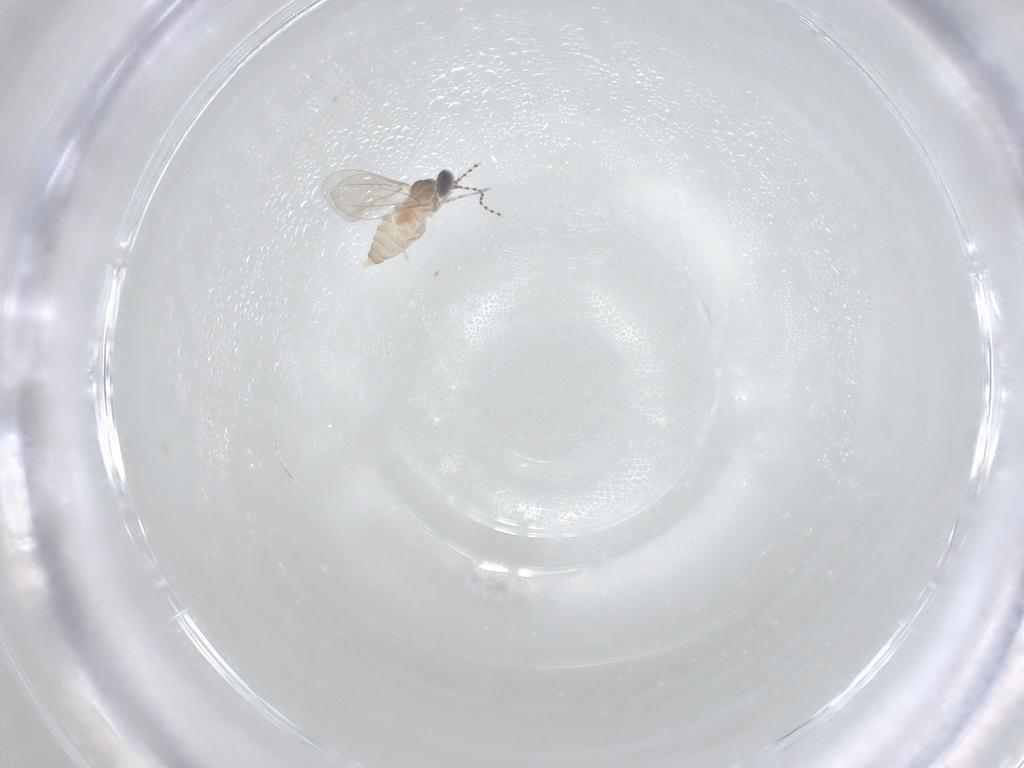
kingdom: Animalia
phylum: Arthropoda
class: Insecta
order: Diptera
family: Cecidomyiidae
